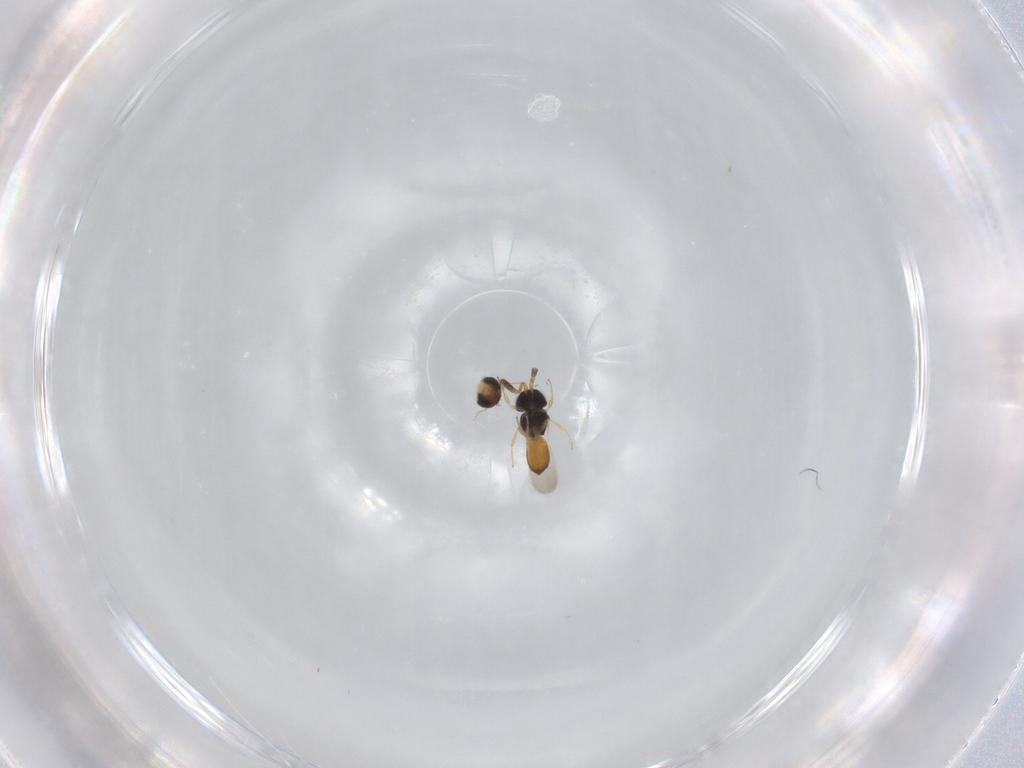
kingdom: Animalia
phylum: Arthropoda
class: Insecta
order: Hymenoptera
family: Scelionidae
